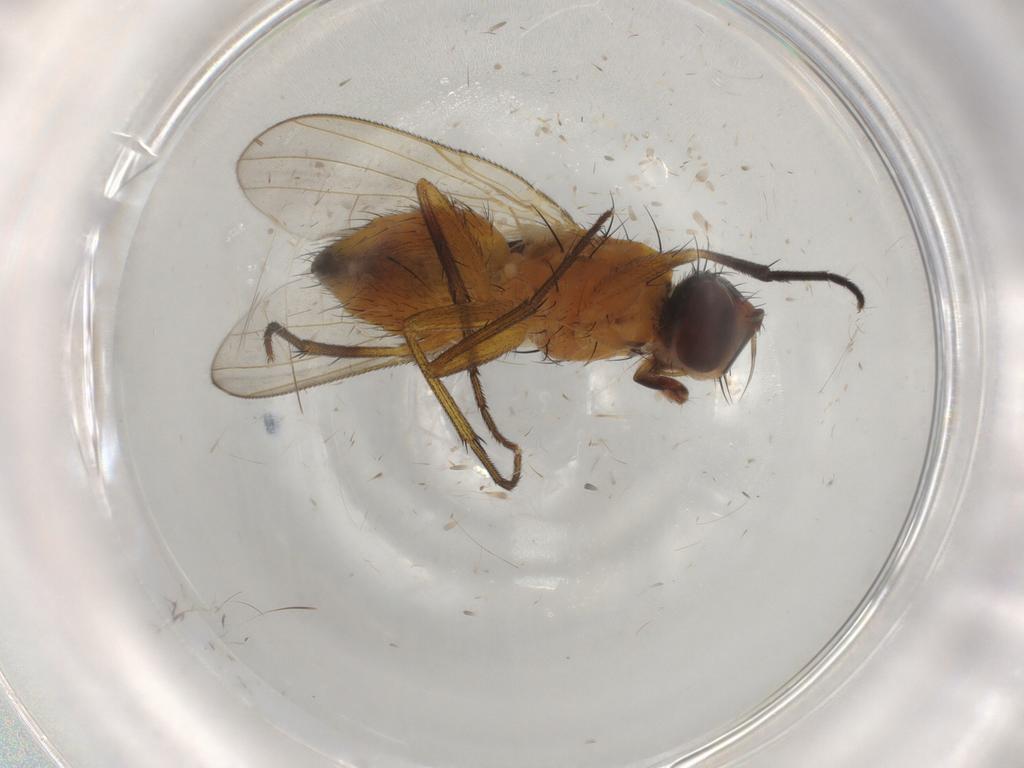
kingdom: Animalia
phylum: Arthropoda
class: Insecta
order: Diptera
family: Muscidae
